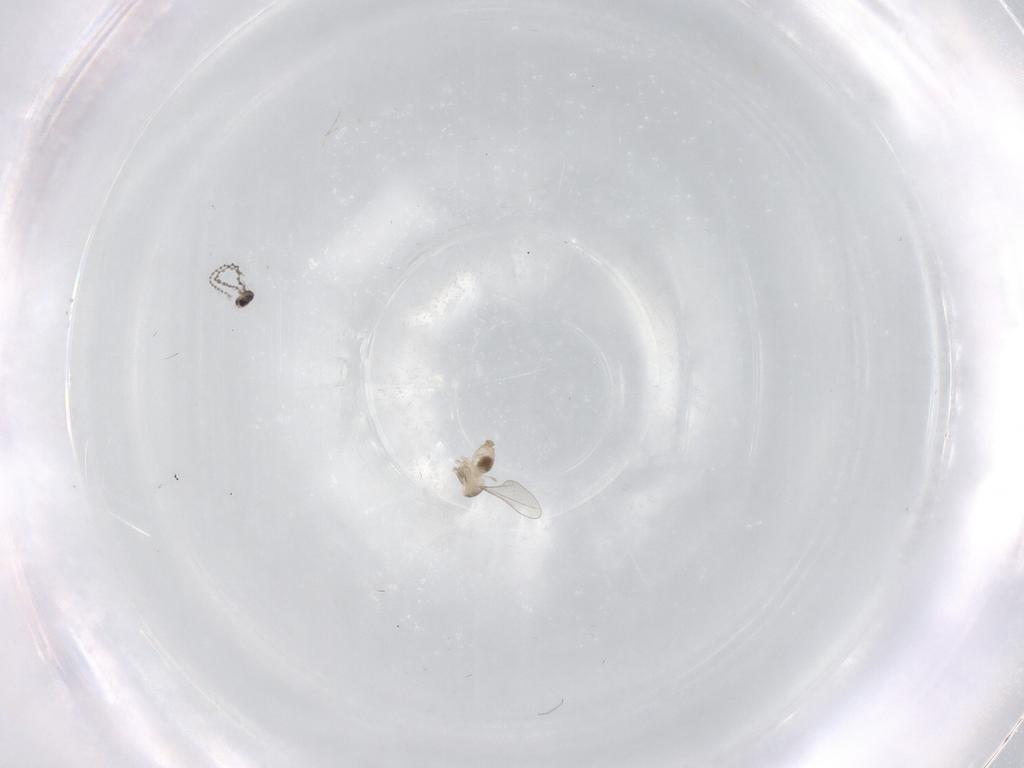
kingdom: Animalia
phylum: Arthropoda
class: Insecta
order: Diptera
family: Cecidomyiidae
